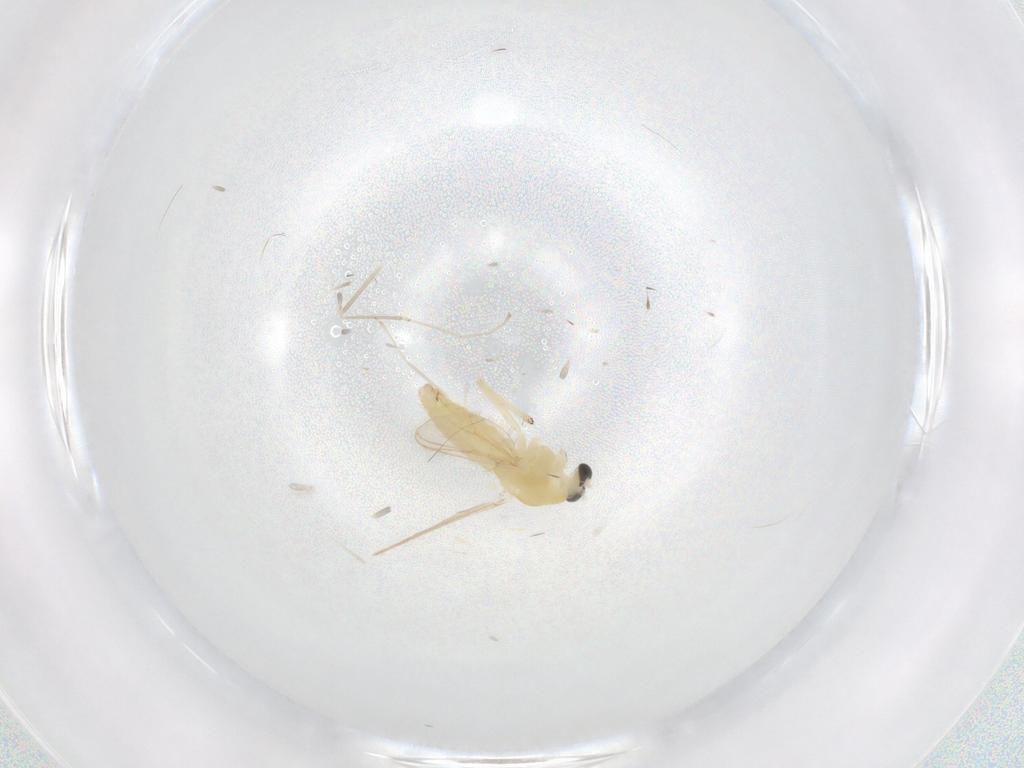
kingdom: Animalia
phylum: Arthropoda
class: Insecta
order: Diptera
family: Chironomidae
